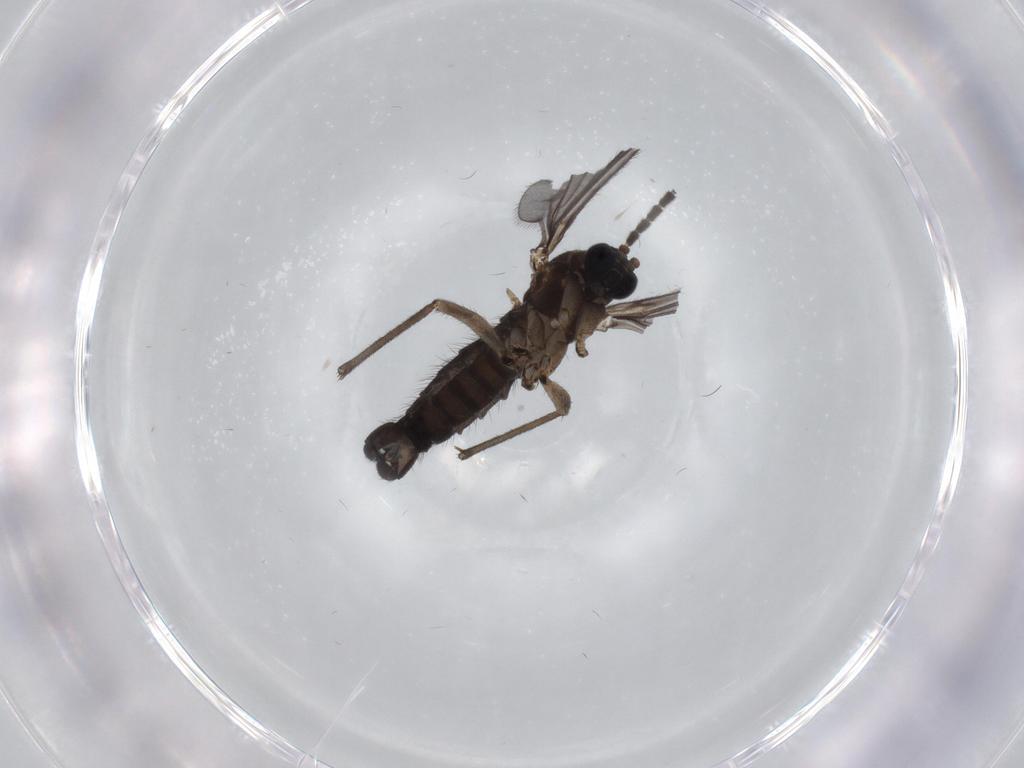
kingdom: Animalia
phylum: Arthropoda
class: Insecta
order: Diptera
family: Sciaridae
